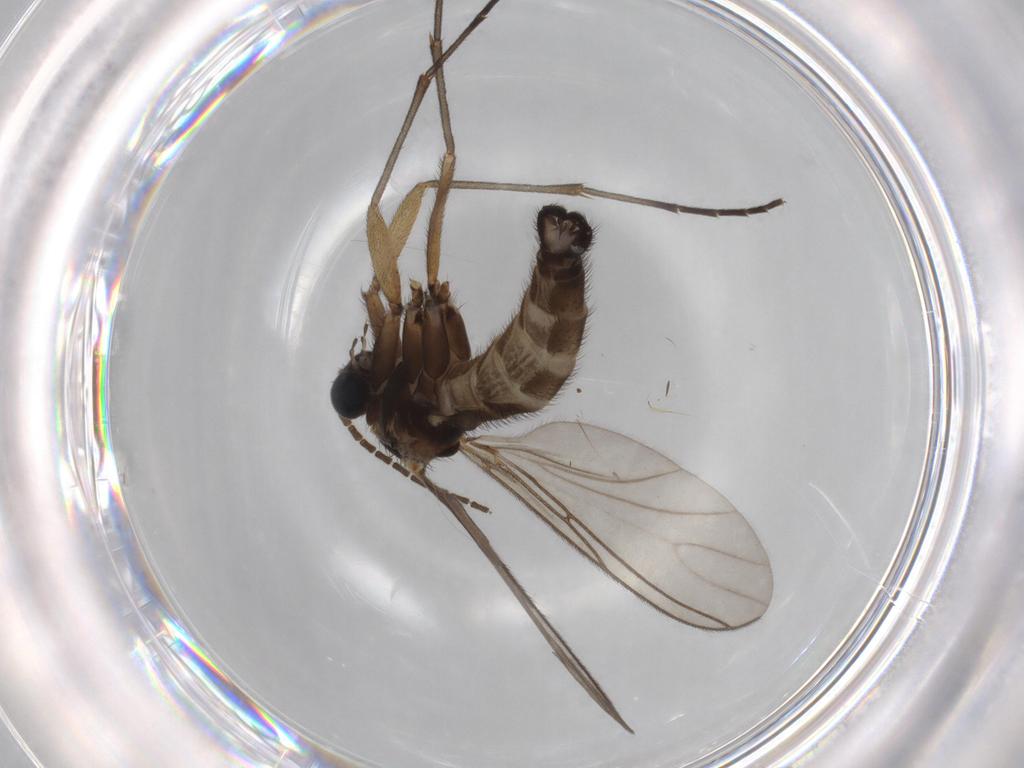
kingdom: Animalia
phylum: Arthropoda
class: Insecta
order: Diptera
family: Sciaridae
